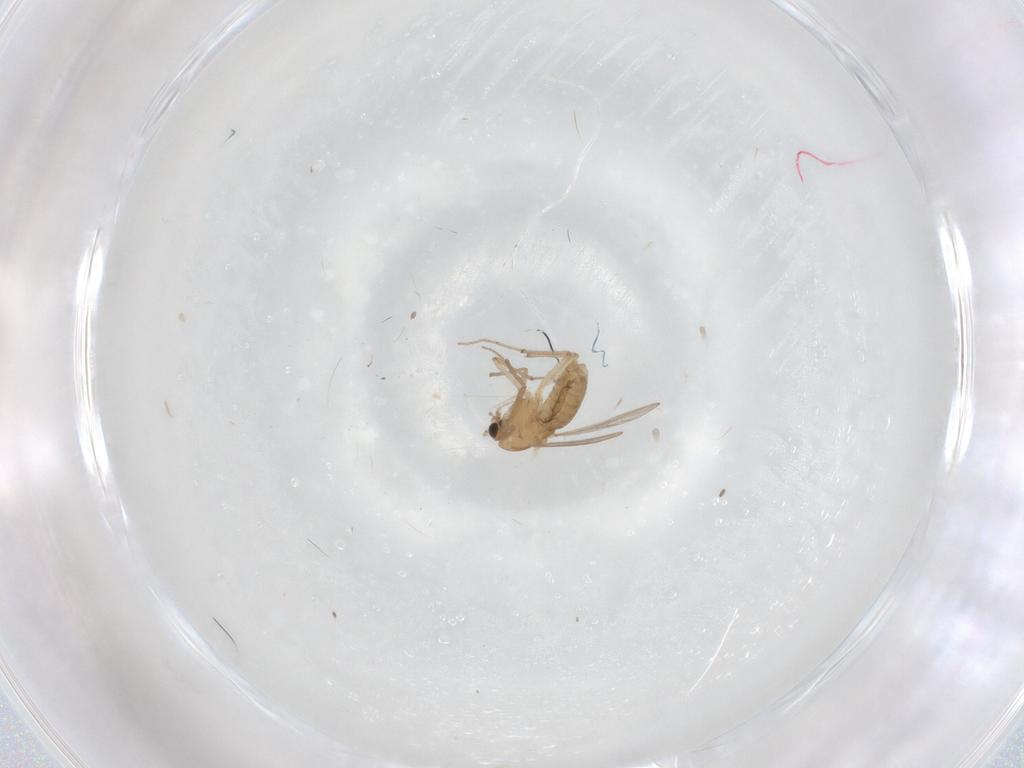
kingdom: Animalia
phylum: Arthropoda
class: Insecta
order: Diptera
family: Chironomidae
